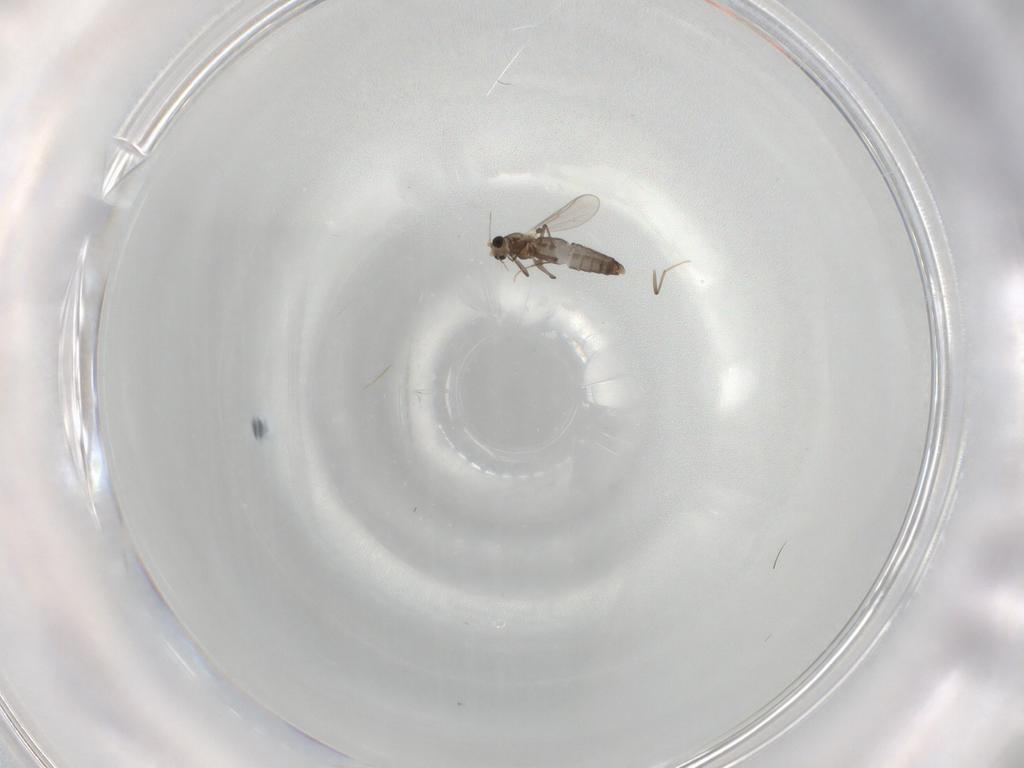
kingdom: Animalia
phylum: Arthropoda
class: Insecta
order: Diptera
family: Chironomidae
